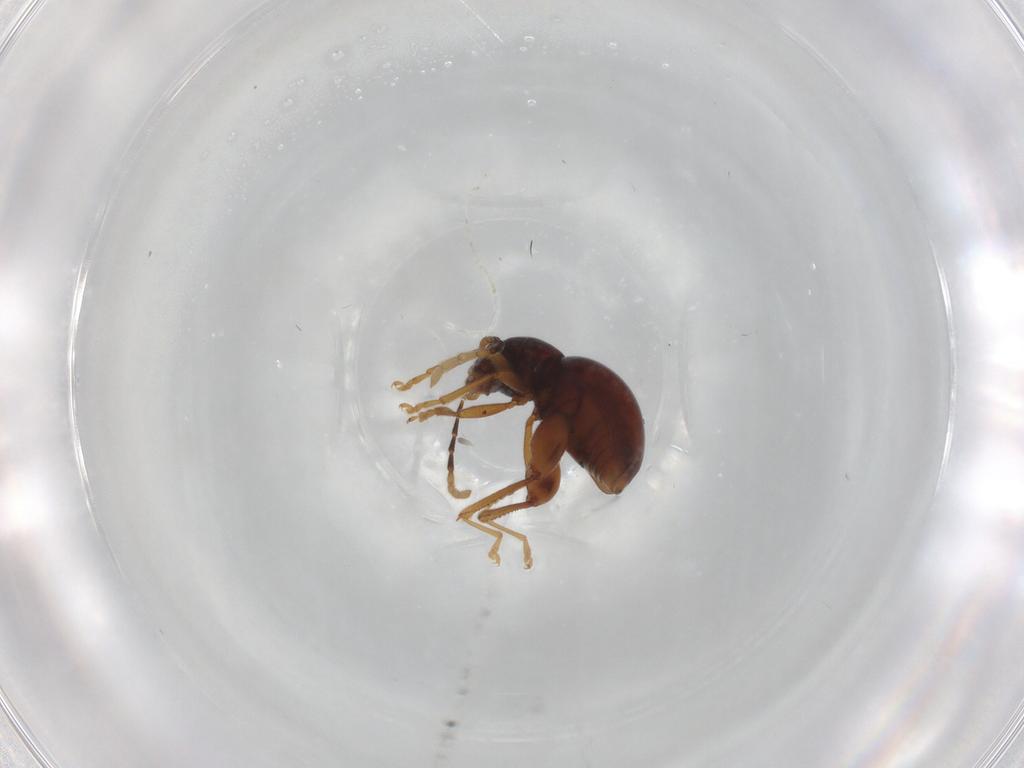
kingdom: Animalia
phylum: Arthropoda
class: Insecta
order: Coleoptera
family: Chrysomelidae
